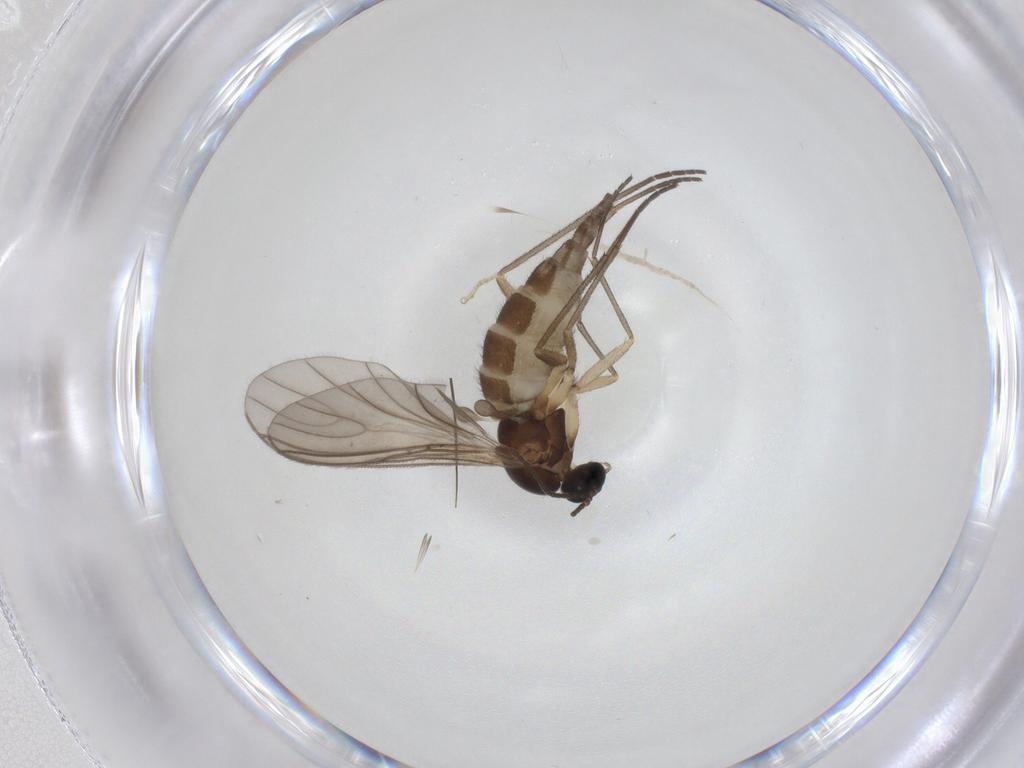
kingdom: Animalia
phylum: Arthropoda
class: Insecta
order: Diptera
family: Sciaridae
